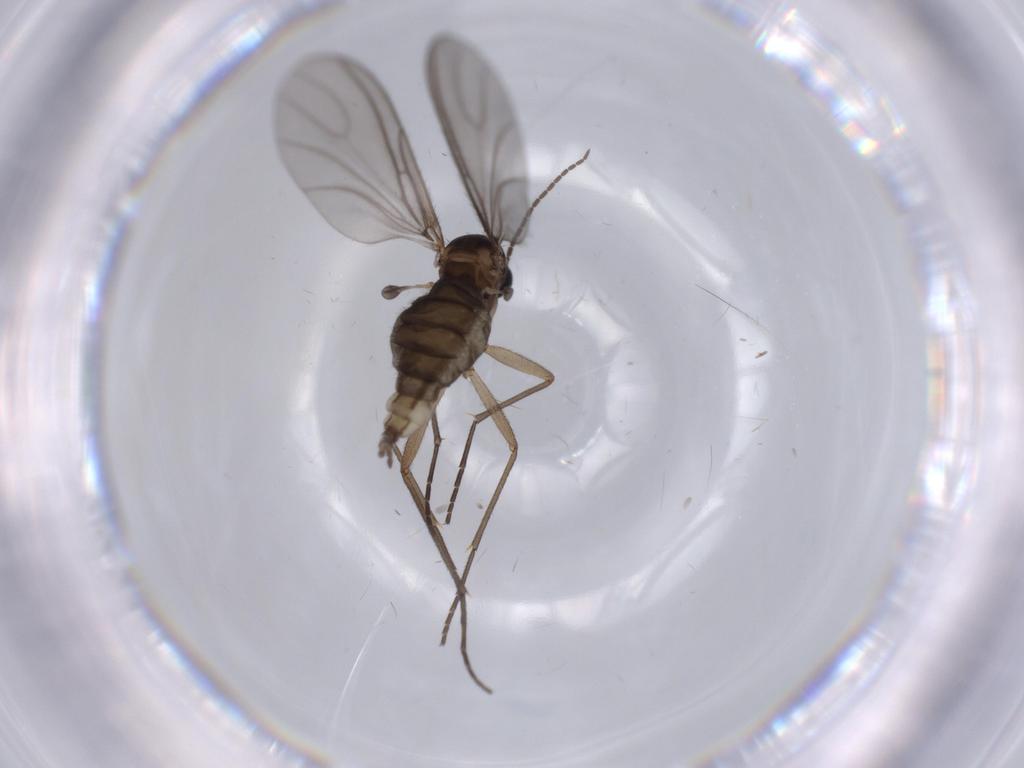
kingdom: Animalia
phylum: Arthropoda
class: Insecta
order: Diptera
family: Sciaridae
